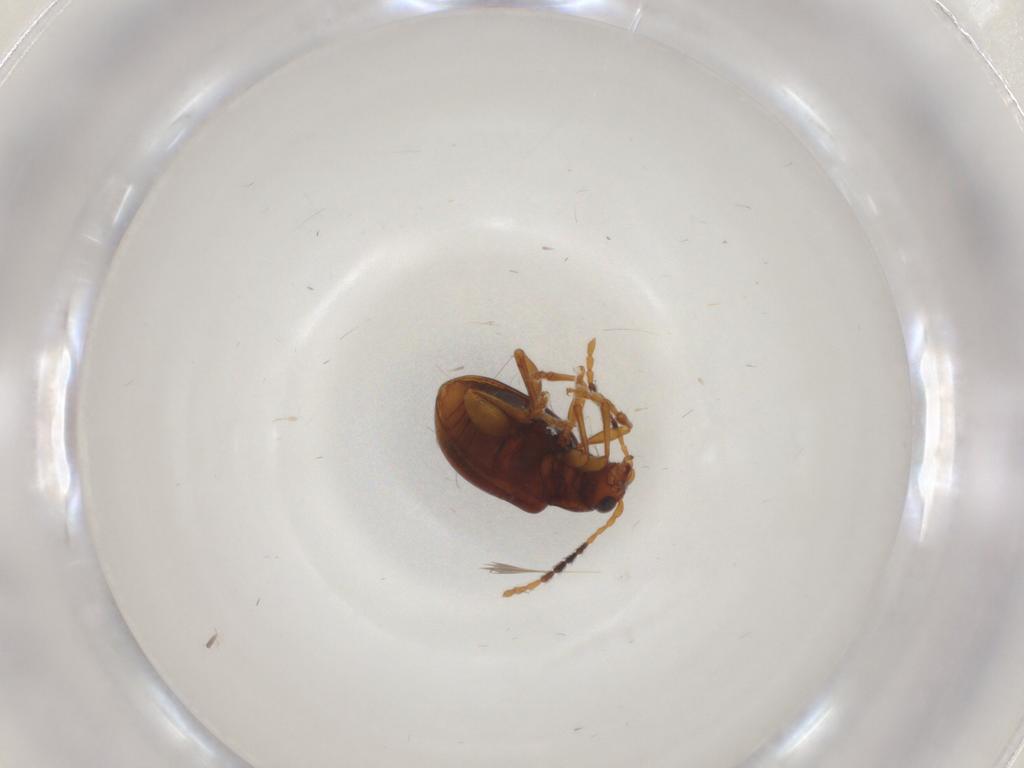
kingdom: Animalia
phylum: Arthropoda
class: Insecta
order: Coleoptera
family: Chrysomelidae
